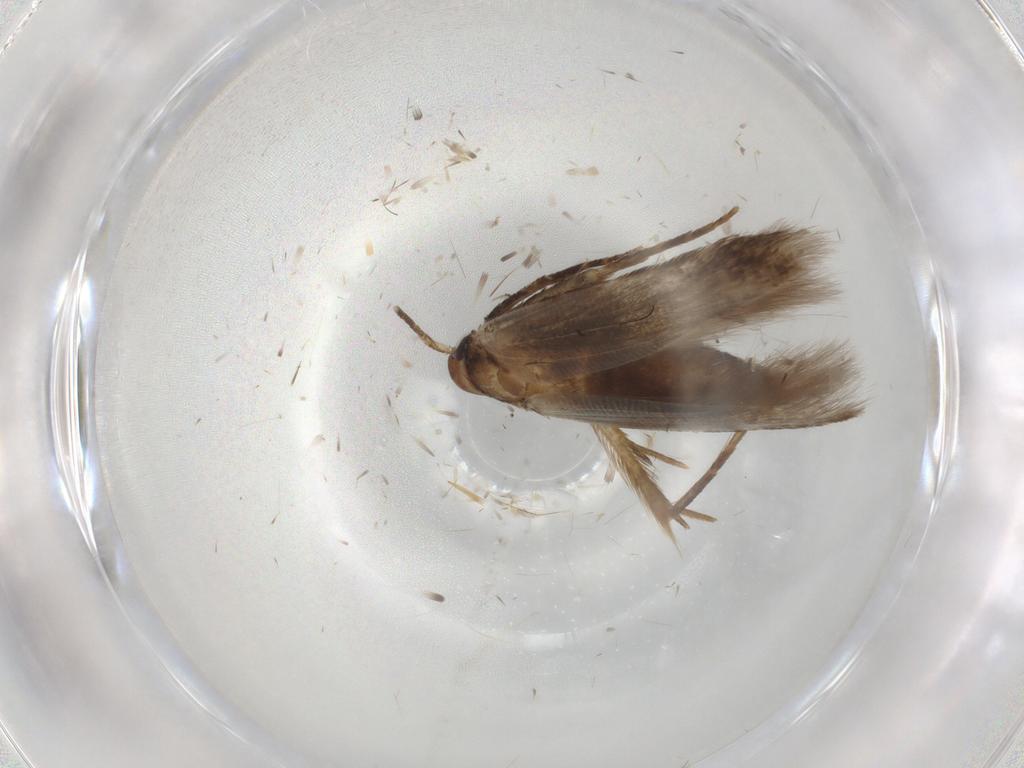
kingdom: Animalia
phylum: Arthropoda
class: Insecta
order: Lepidoptera
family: Cosmopterigidae
